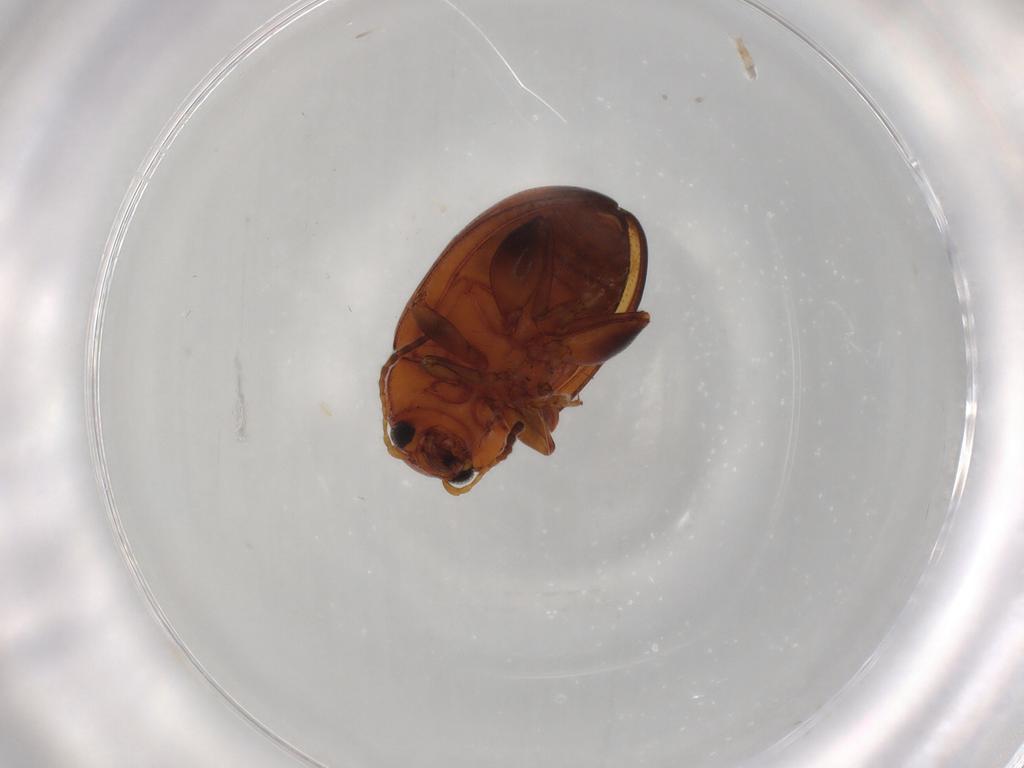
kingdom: Animalia
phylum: Arthropoda
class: Insecta
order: Coleoptera
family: Chrysomelidae
